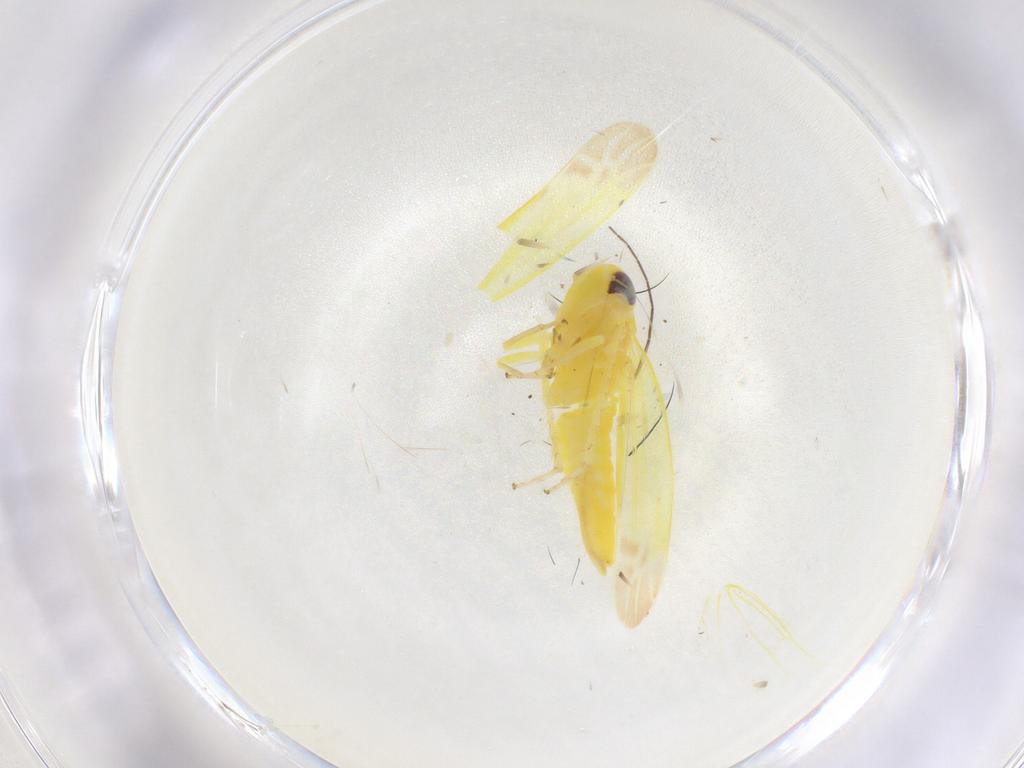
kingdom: Animalia
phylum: Arthropoda
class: Insecta
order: Hemiptera
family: Cicadellidae
